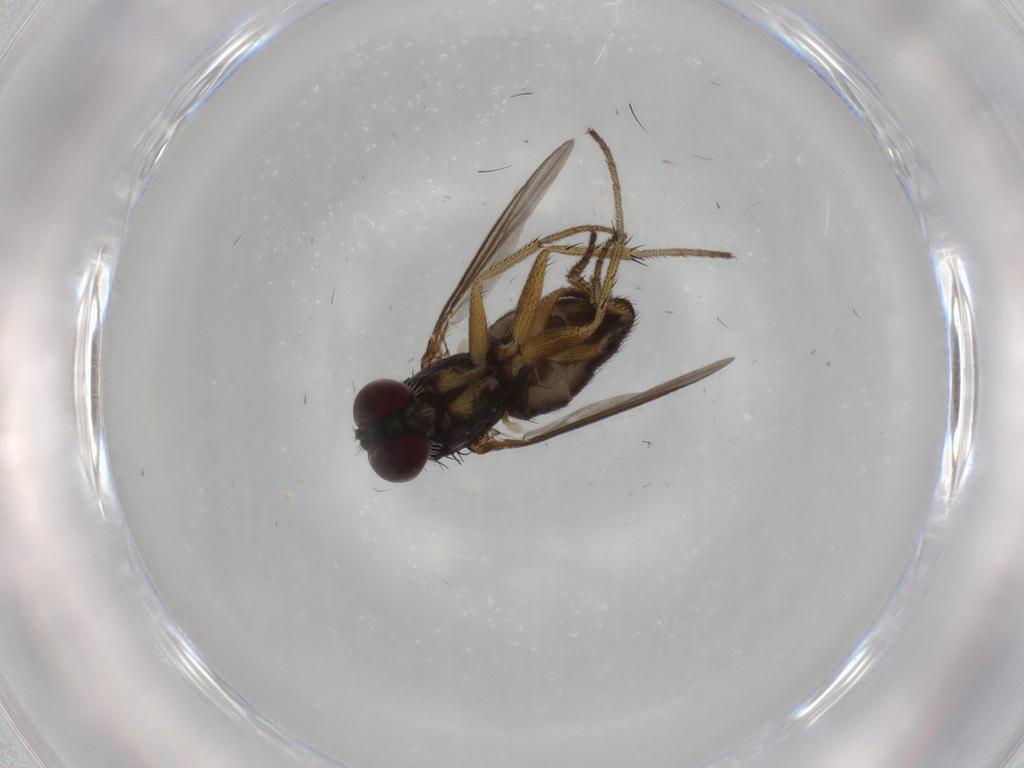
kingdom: Animalia
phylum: Arthropoda
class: Insecta
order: Diptera
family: Dolichopodidae
